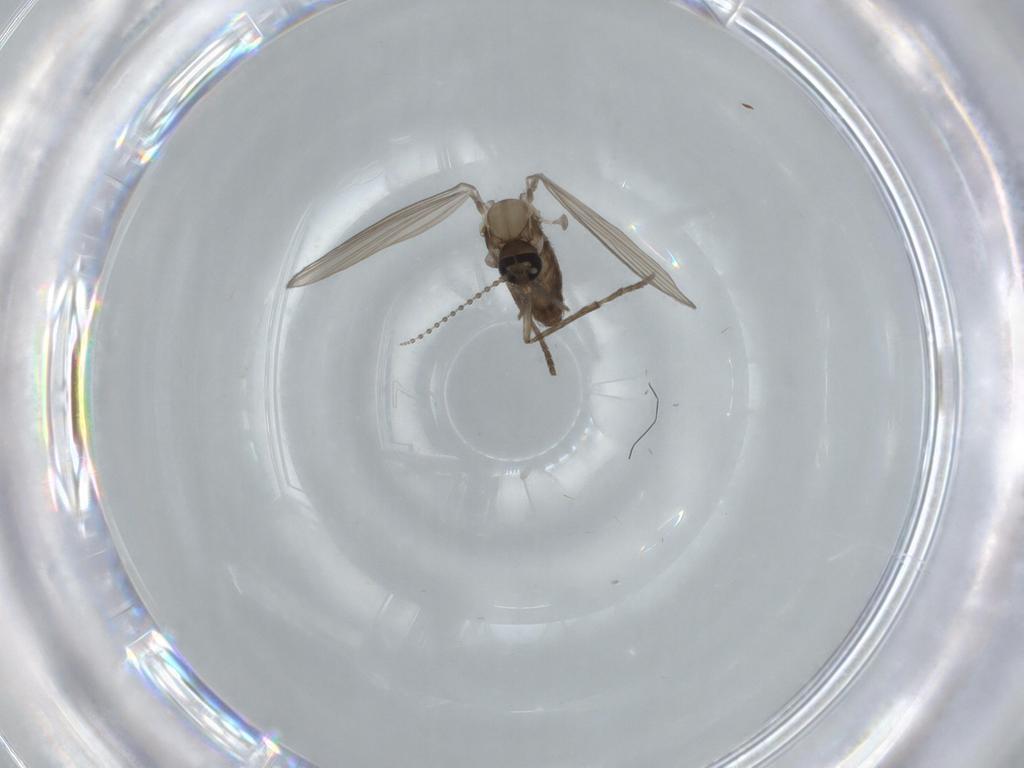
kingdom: Animalia
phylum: Arthropoda
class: Insecta
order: Diptera
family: Psychodidae
